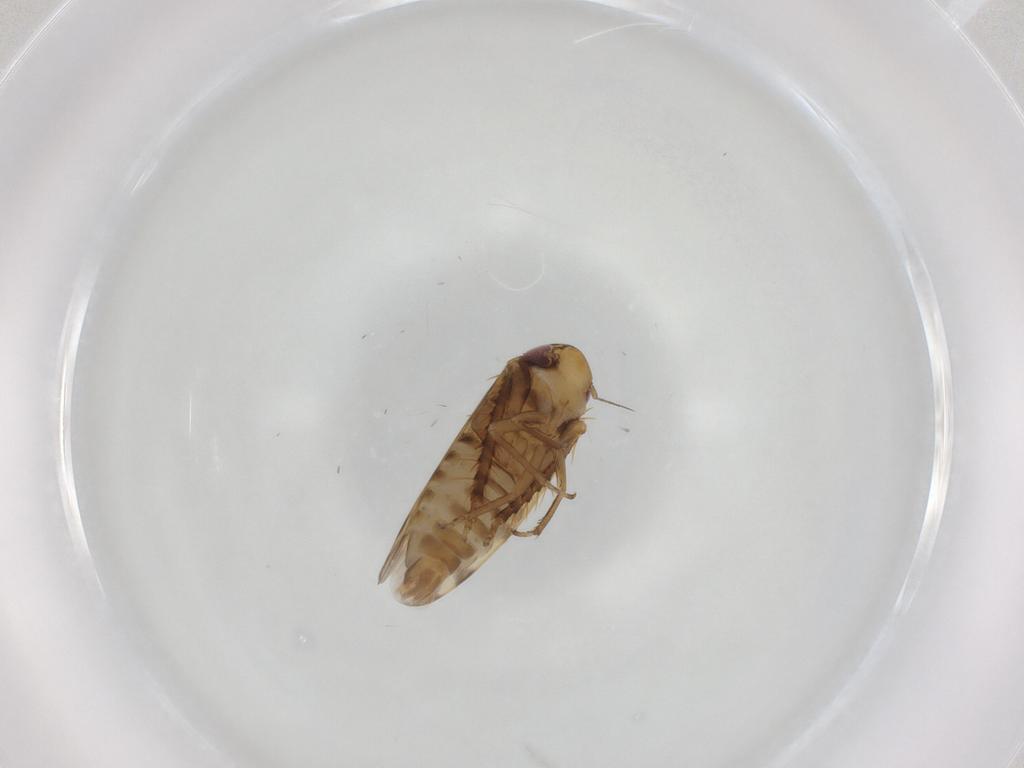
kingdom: Animalia
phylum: Arthropoda
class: Insecta
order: Hemiptera
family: Cicadellidae
